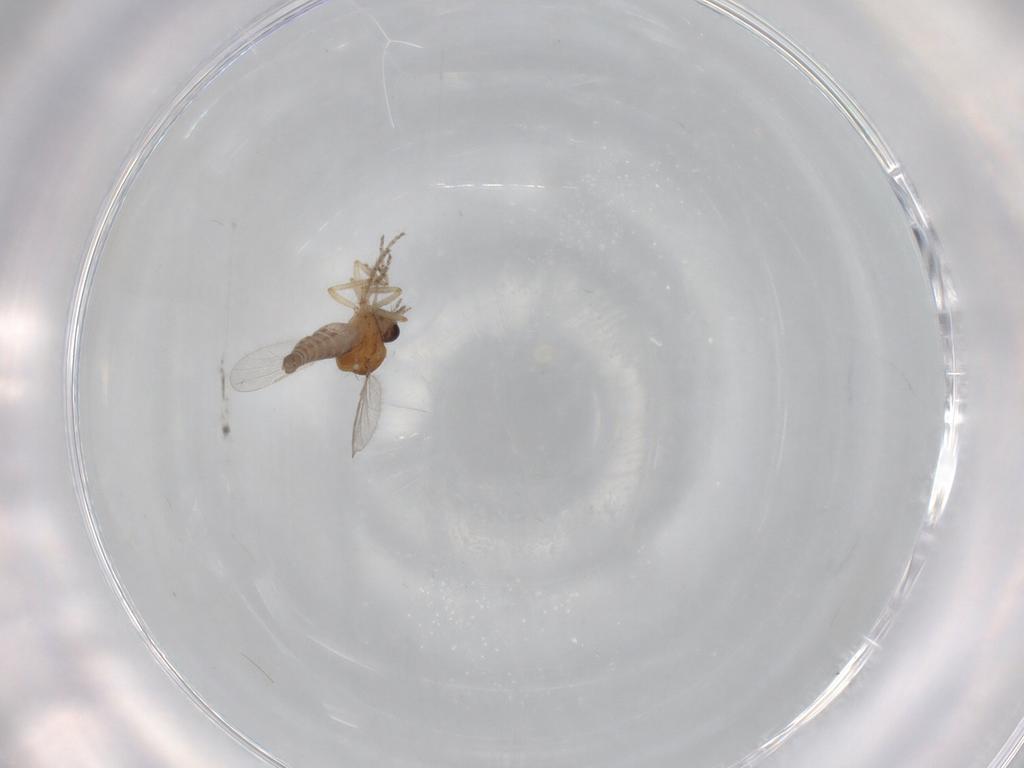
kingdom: Animalia
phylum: Arthropoda
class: Insecta
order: Diptera
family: Ceratopogonidae
